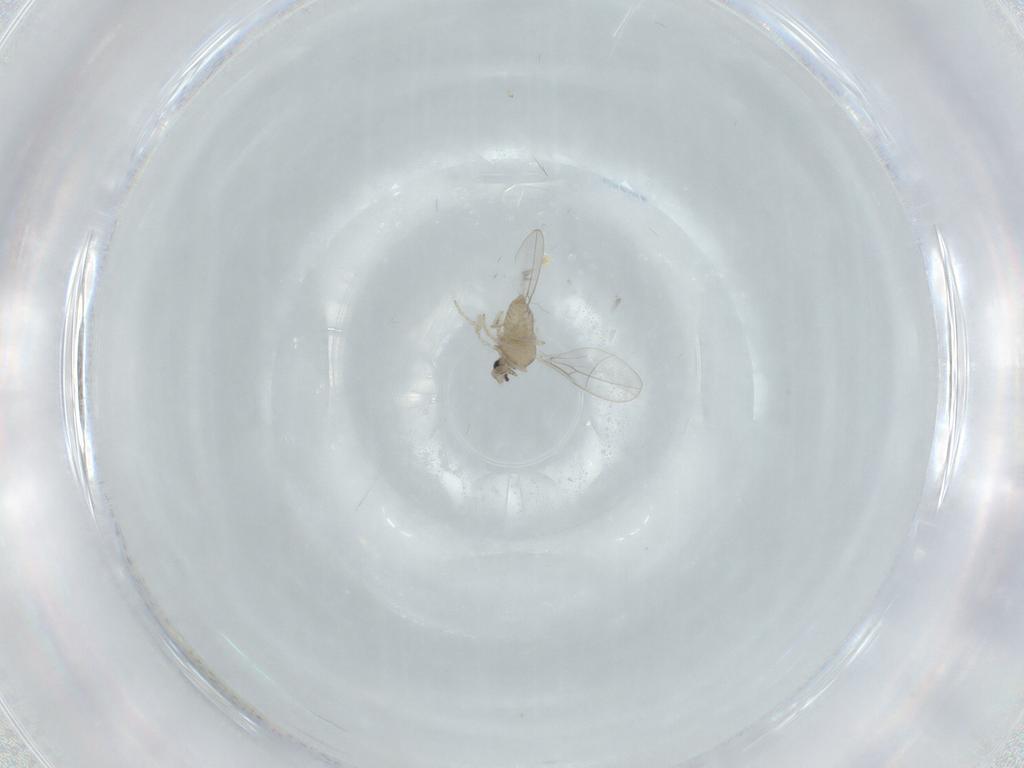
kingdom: Animalia
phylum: Arthropoda
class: Insecta
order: Diptera
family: Cecidomyiidae
